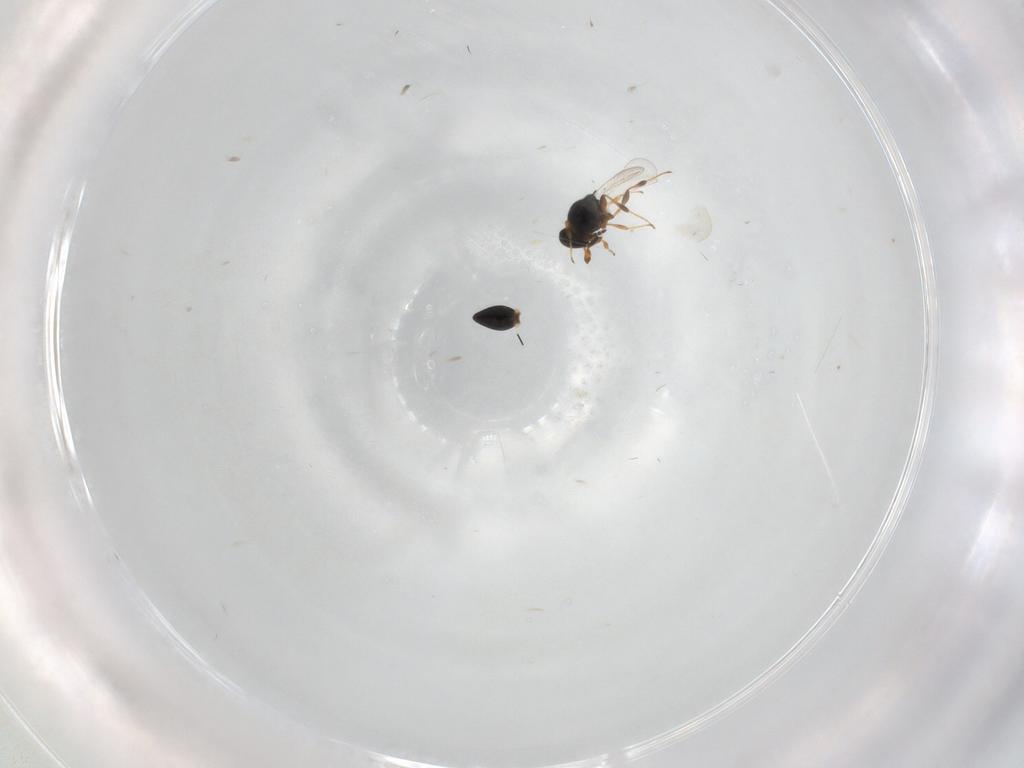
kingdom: Animalia
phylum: Arthropoda
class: Insecta
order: Hymenoptera
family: Platygastridae
